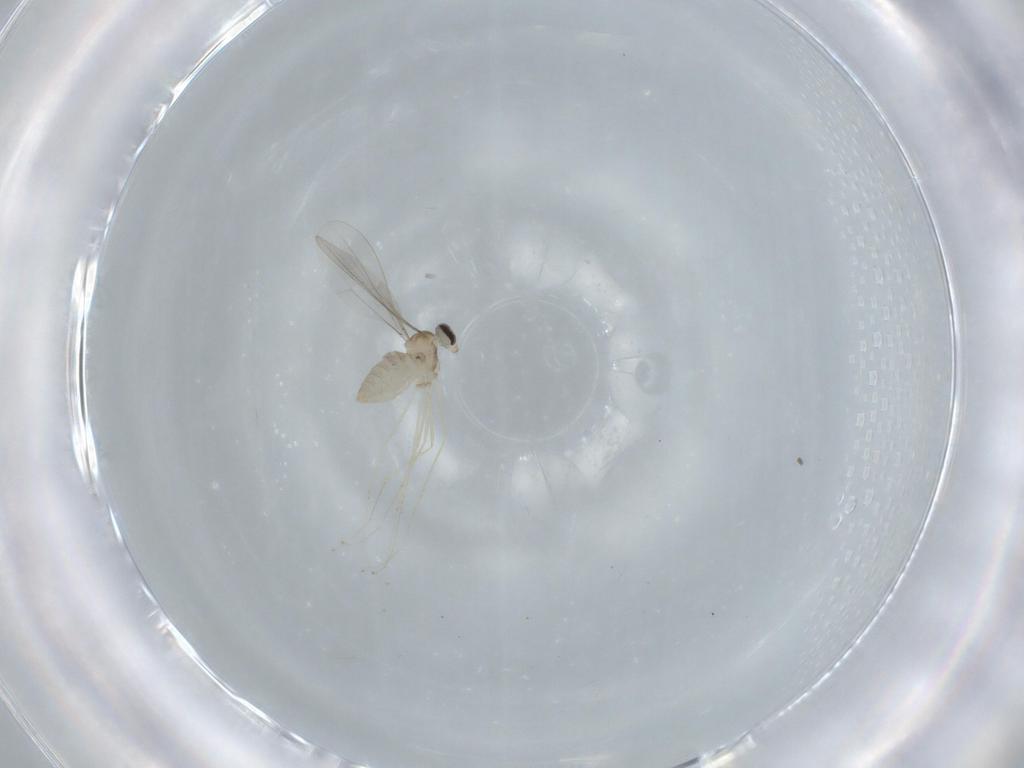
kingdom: Animalia
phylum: Arthropoda
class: Insecta
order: Diptera
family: Cecidomyiidae
